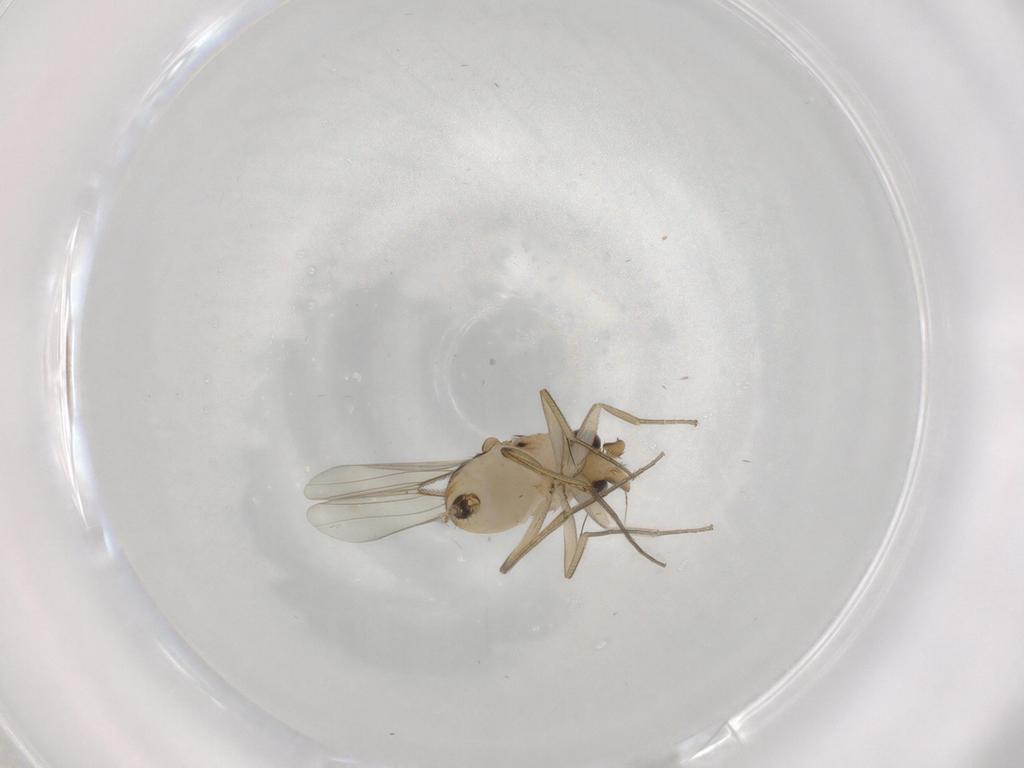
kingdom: Animalia
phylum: Arthropoda
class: Insecta
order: Diptera
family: Phoridae
